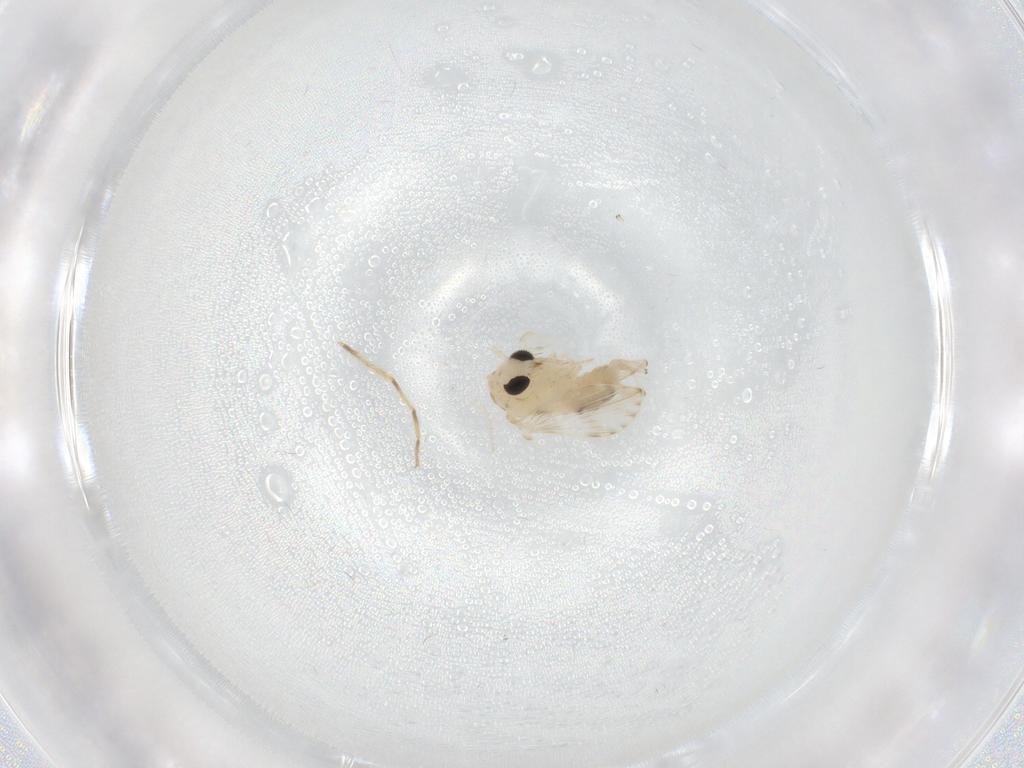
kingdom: Animalia
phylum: Arthropoda
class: Insecta
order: Diptera
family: Psychodidae
